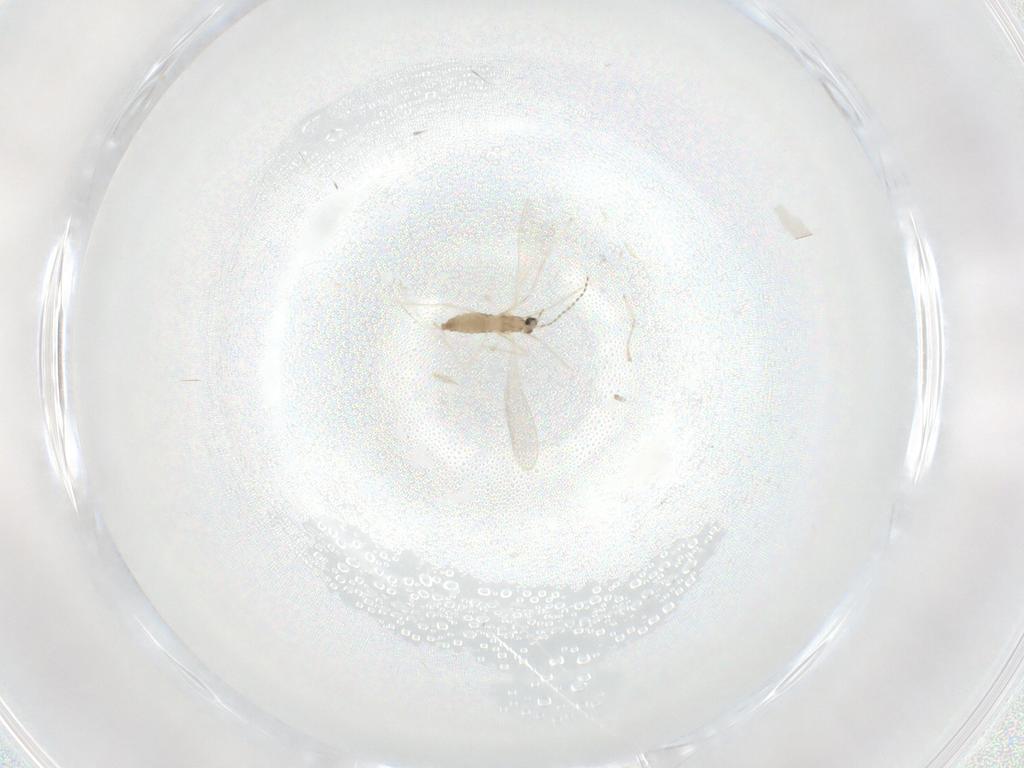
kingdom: Animalia
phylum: Arthropoda
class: Insecta
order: Diptera
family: Cecidomyiidae
